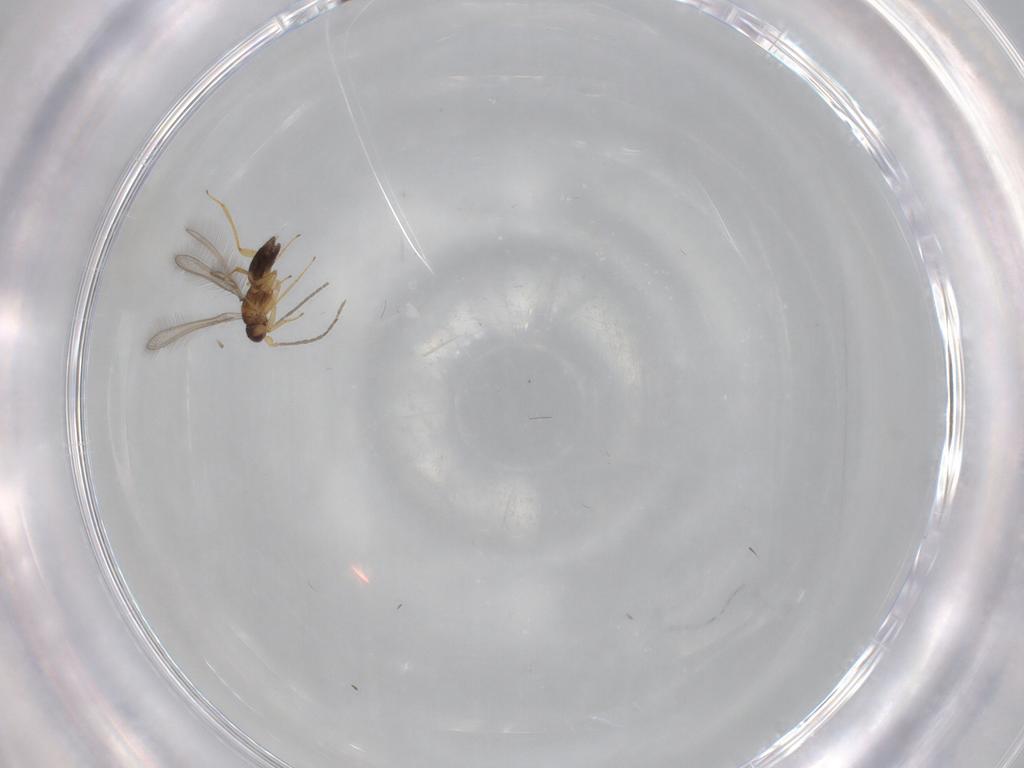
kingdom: Animalia
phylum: Arthropoda
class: Insecta
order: Hymenoptera
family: Mymaridae
